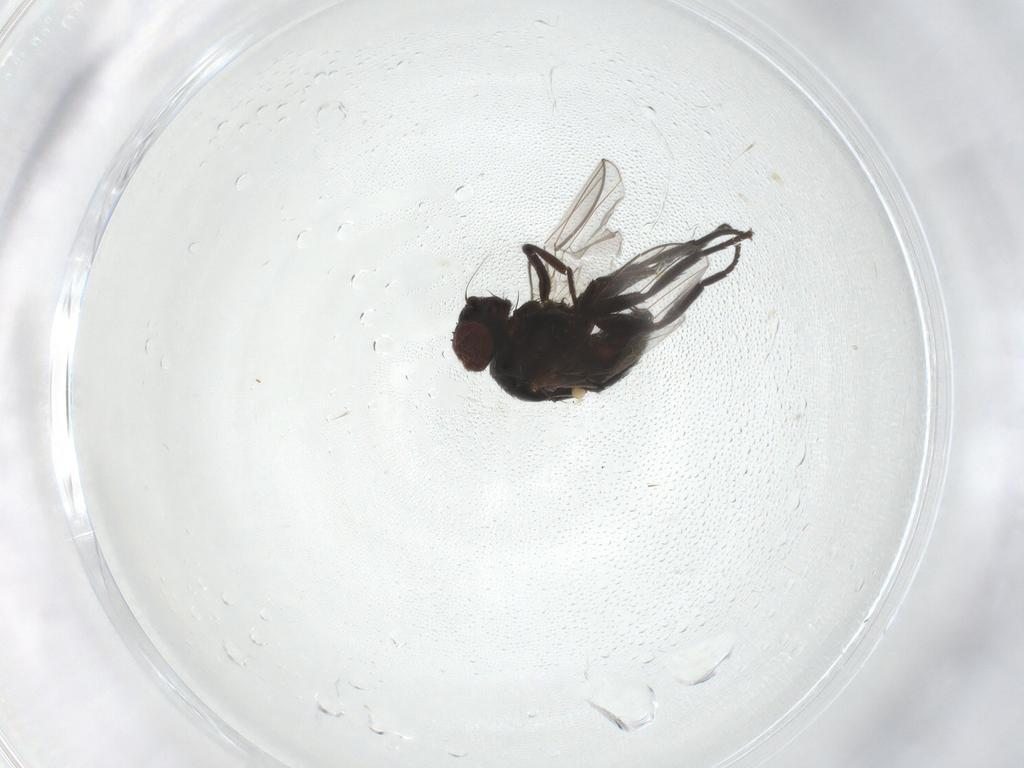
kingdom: Animalia
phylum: Arthropoda
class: Insecta
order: Diptera
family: Agromyzidae
